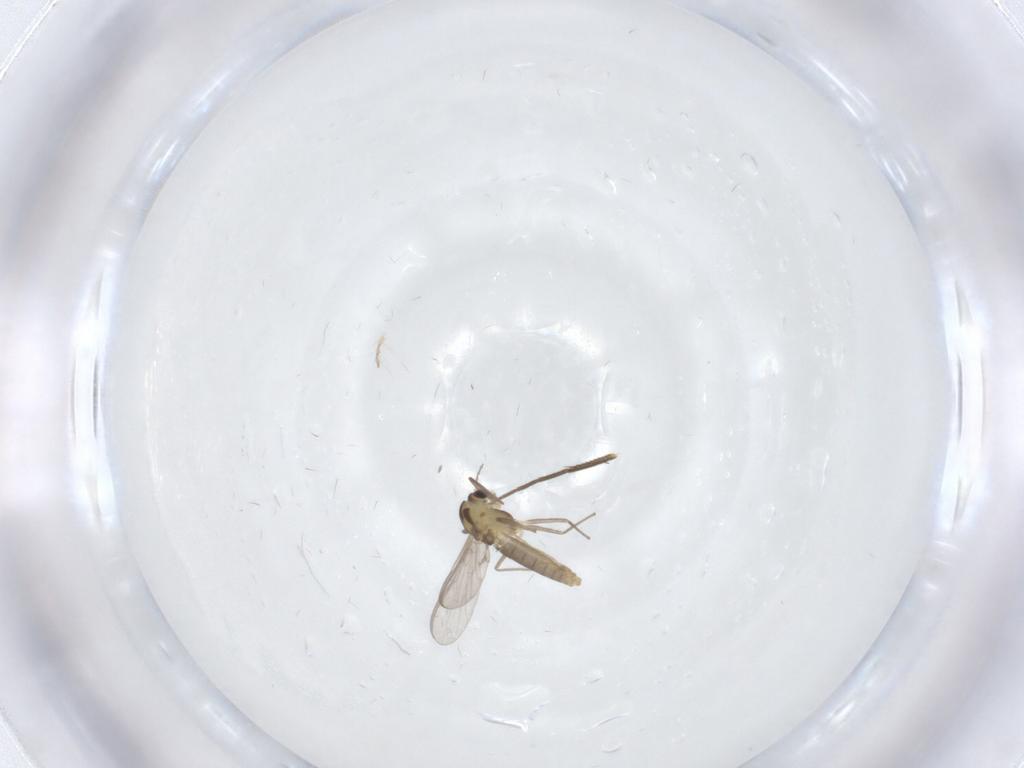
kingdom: Animalia
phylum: Arthropoda
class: Insecta
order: Diptera
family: Chironomidae
